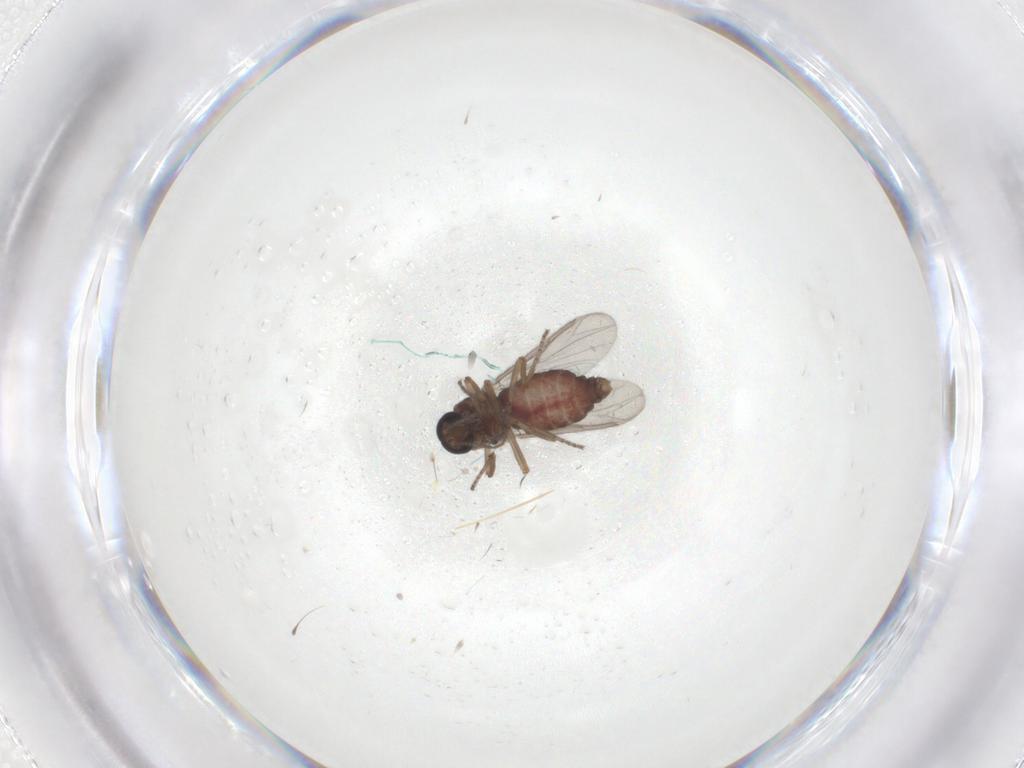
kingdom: Animalia
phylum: Arthropoda
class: Insecta
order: Diptera
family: Ceratopogonidae
